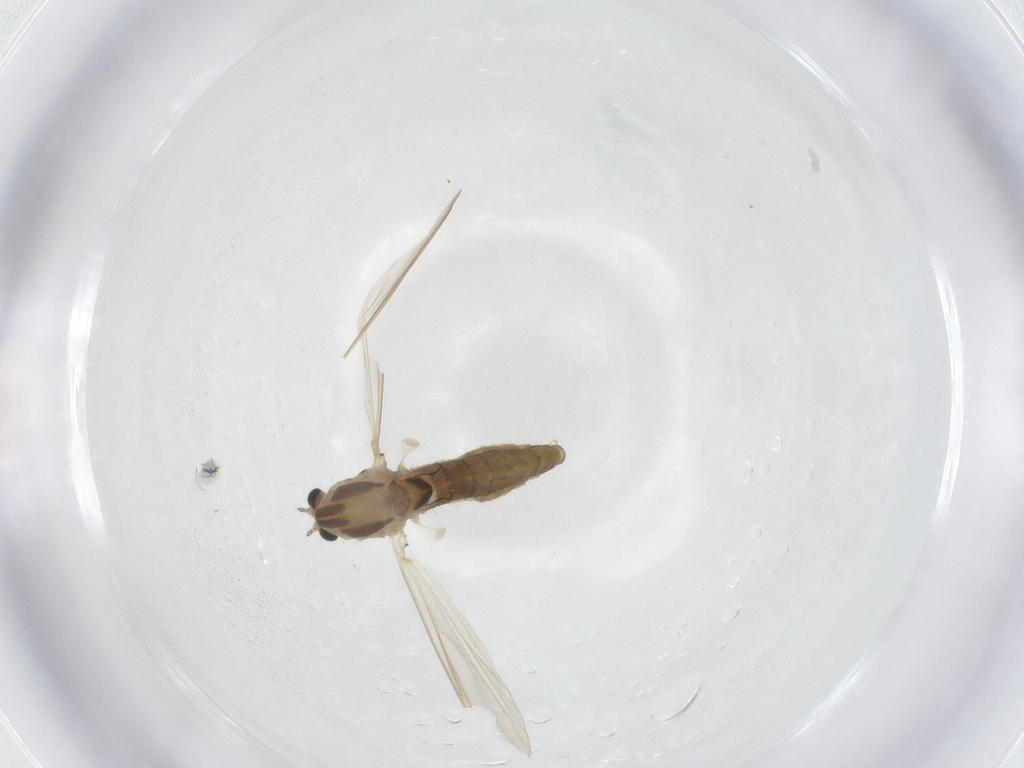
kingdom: Animalia
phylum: Arthropoda
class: Insecta
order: Diptera
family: Chironomidae
